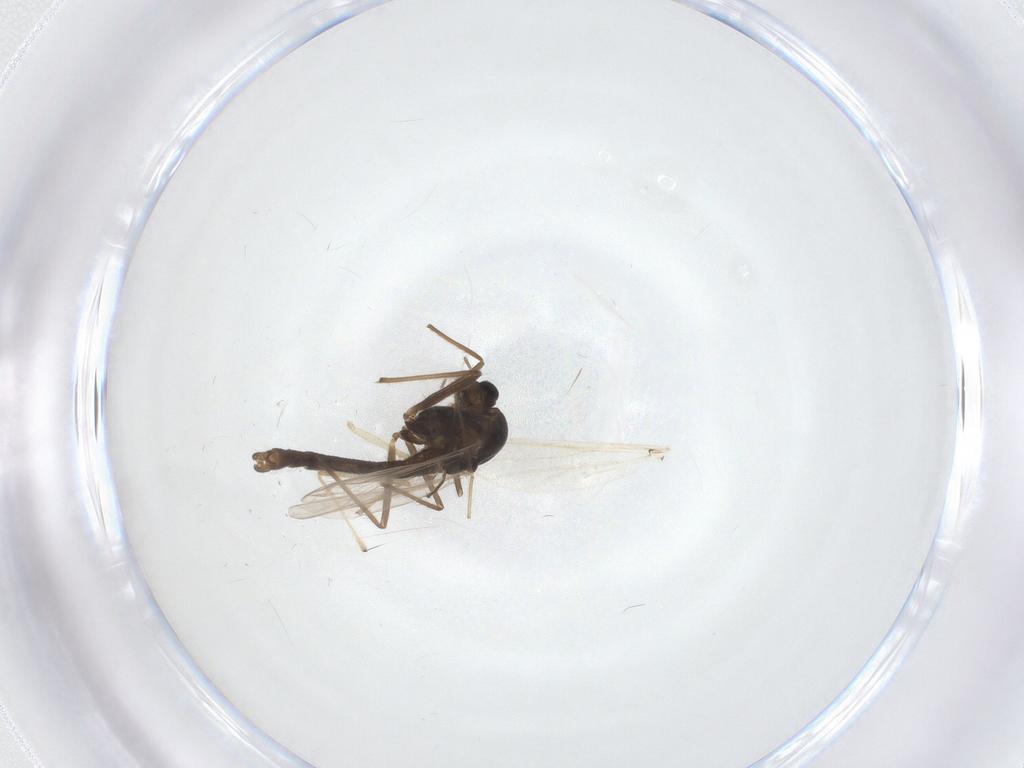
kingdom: Animalia
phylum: Arthropoda
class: Insecta
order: Diptera
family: Chironomidae
